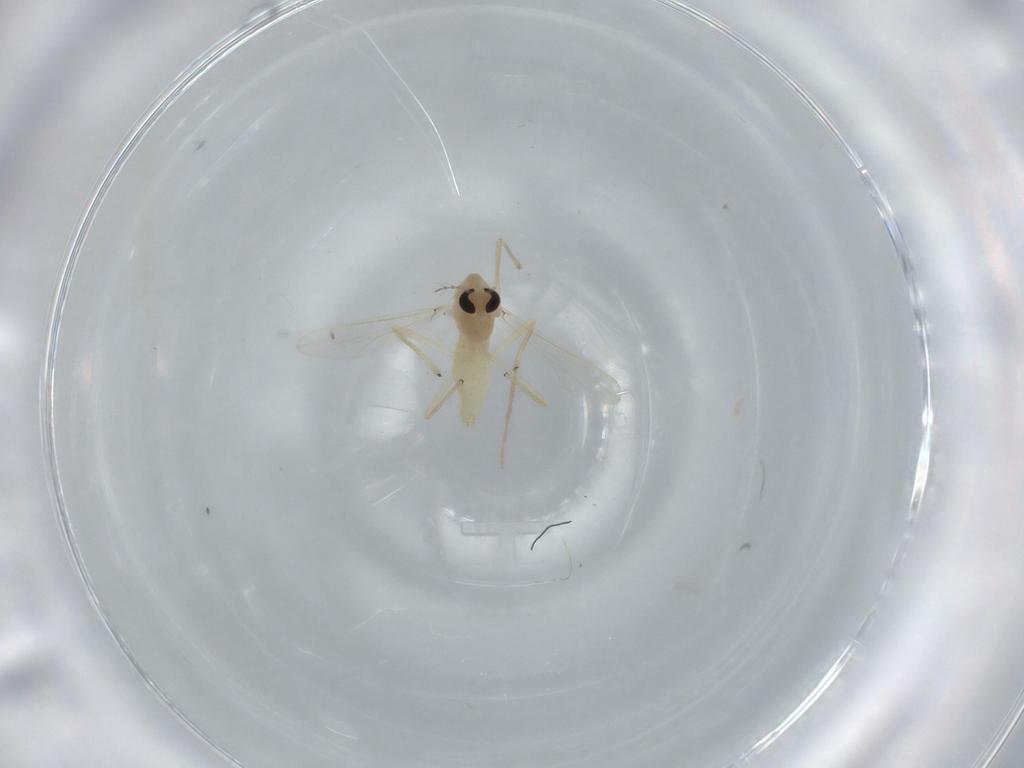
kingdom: Animalia
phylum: Arthropoda
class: Insecta
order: Diptera
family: Chironomidae
